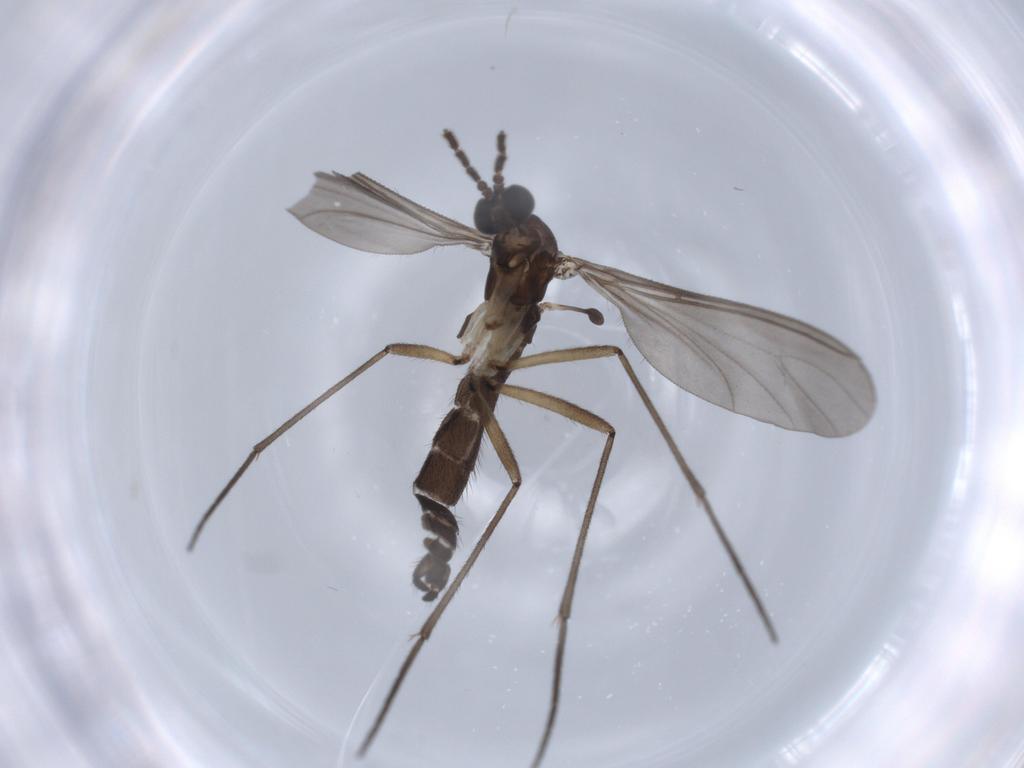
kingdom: Animalia
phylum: Arthropoda
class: Insecta
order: Diptera
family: Sciaridae
